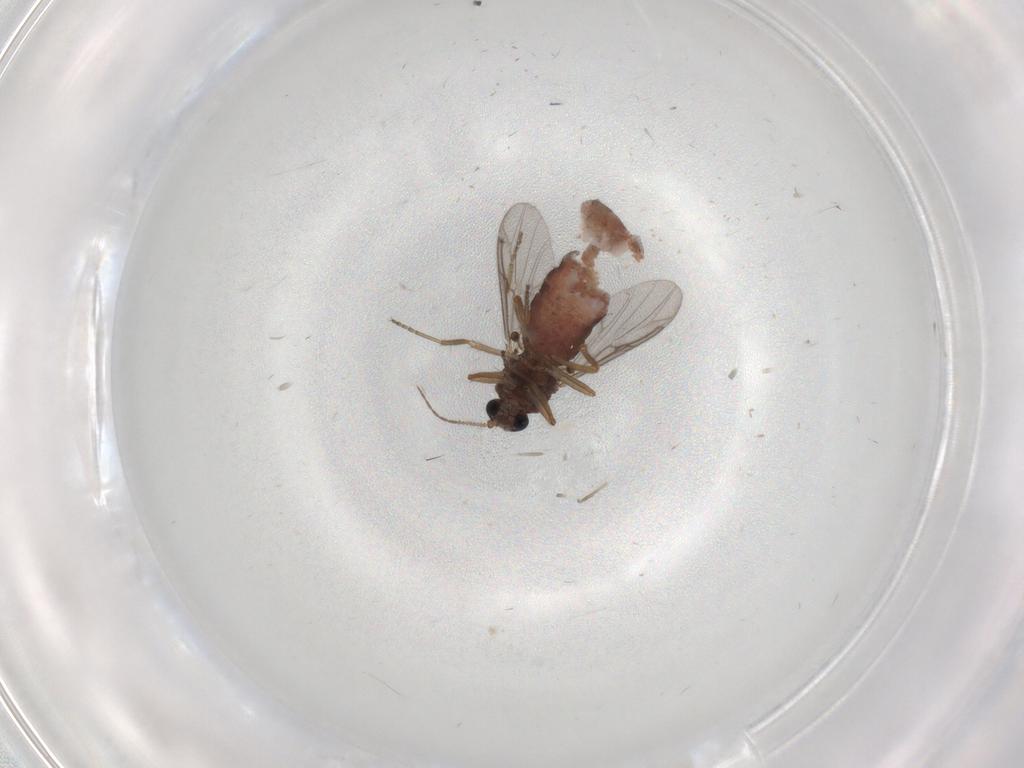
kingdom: Animalia
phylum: Arthropoda
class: Insecta
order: Diptera
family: Ceratopogonidae
